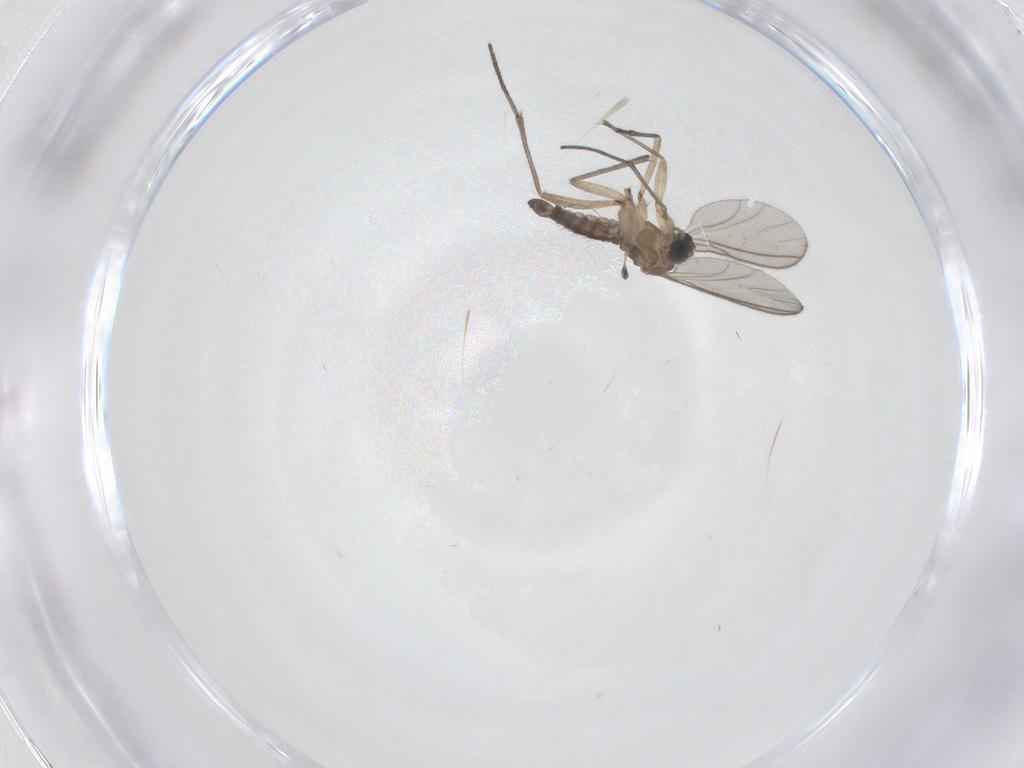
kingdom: Animalia
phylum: Arthropoda
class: Insecta
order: Diptera
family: Sciaridae
